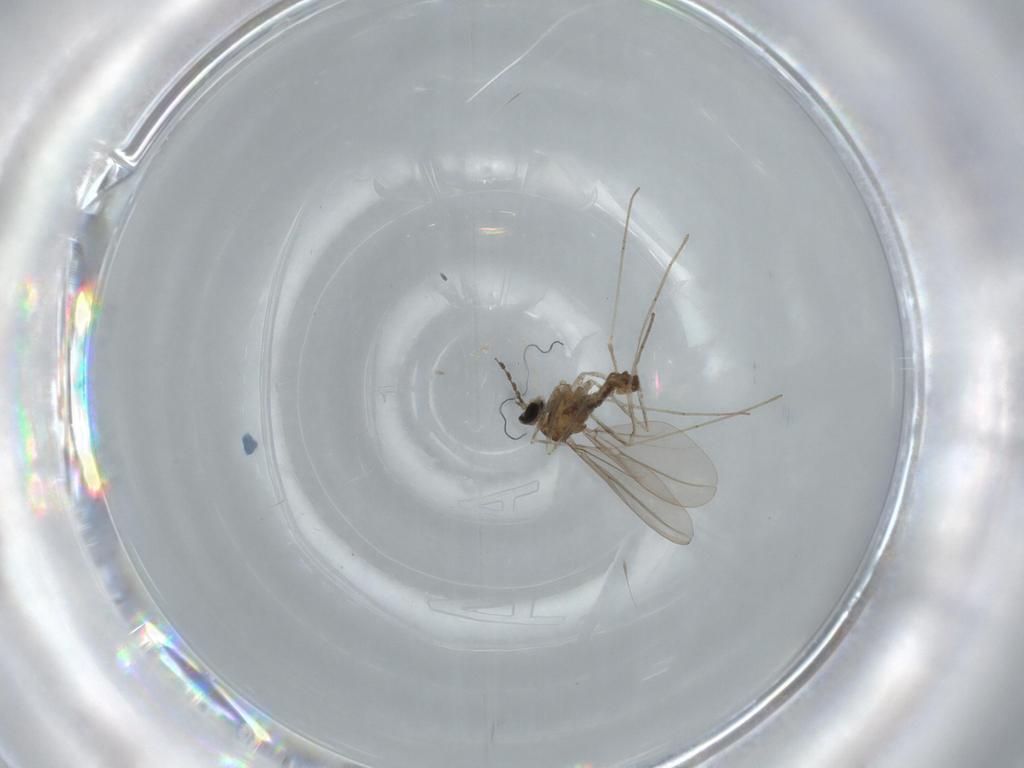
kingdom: Animalia
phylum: Arthropoda
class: Insecta
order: Diptera
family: Cecidomyiidae
